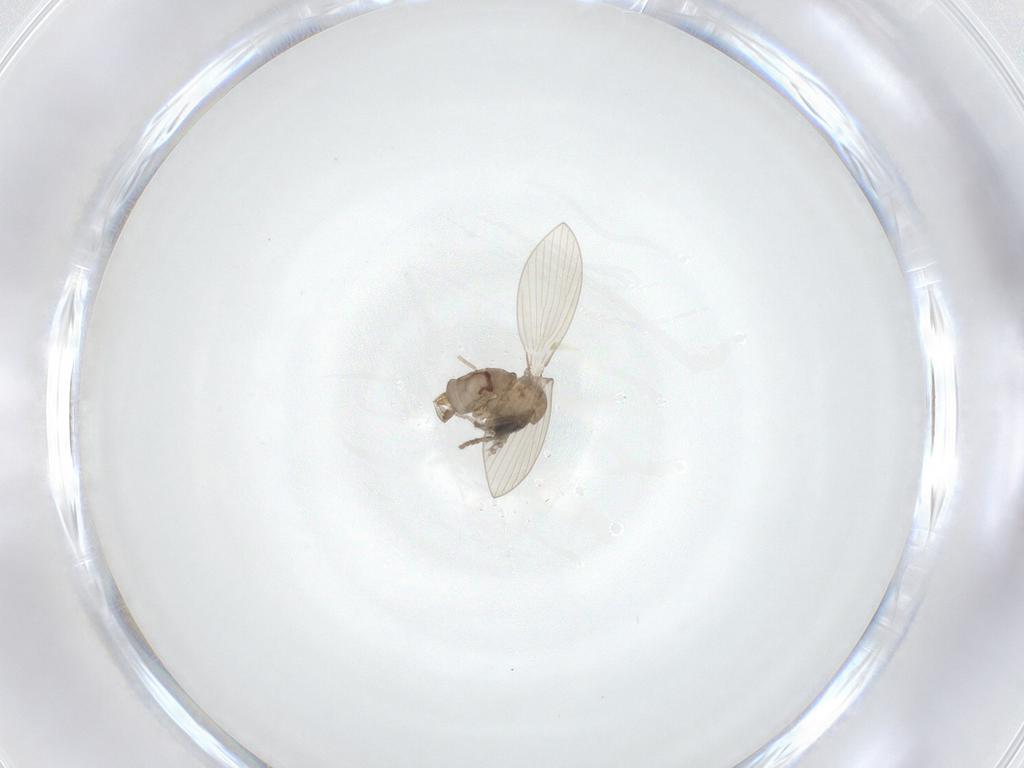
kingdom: Animalia
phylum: Arthropoda
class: Insecta
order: Diptera
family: Psychodidae
